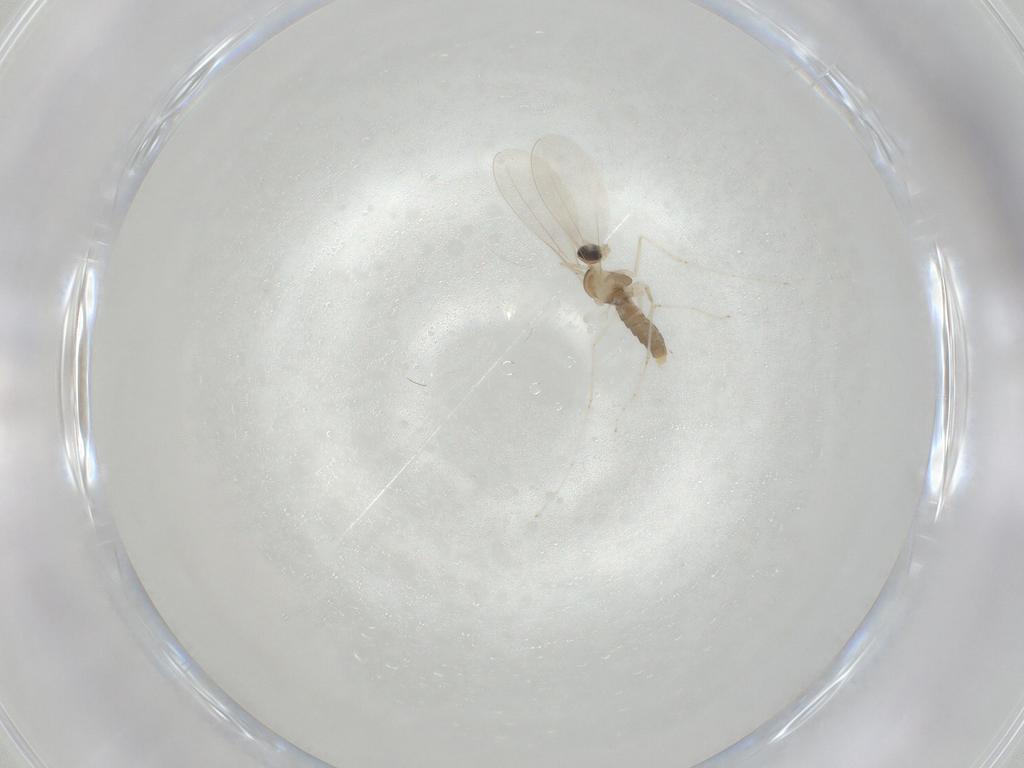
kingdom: Animalia
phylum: Arthropoda
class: Insecta
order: Diptera
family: Cecidomyiidae
